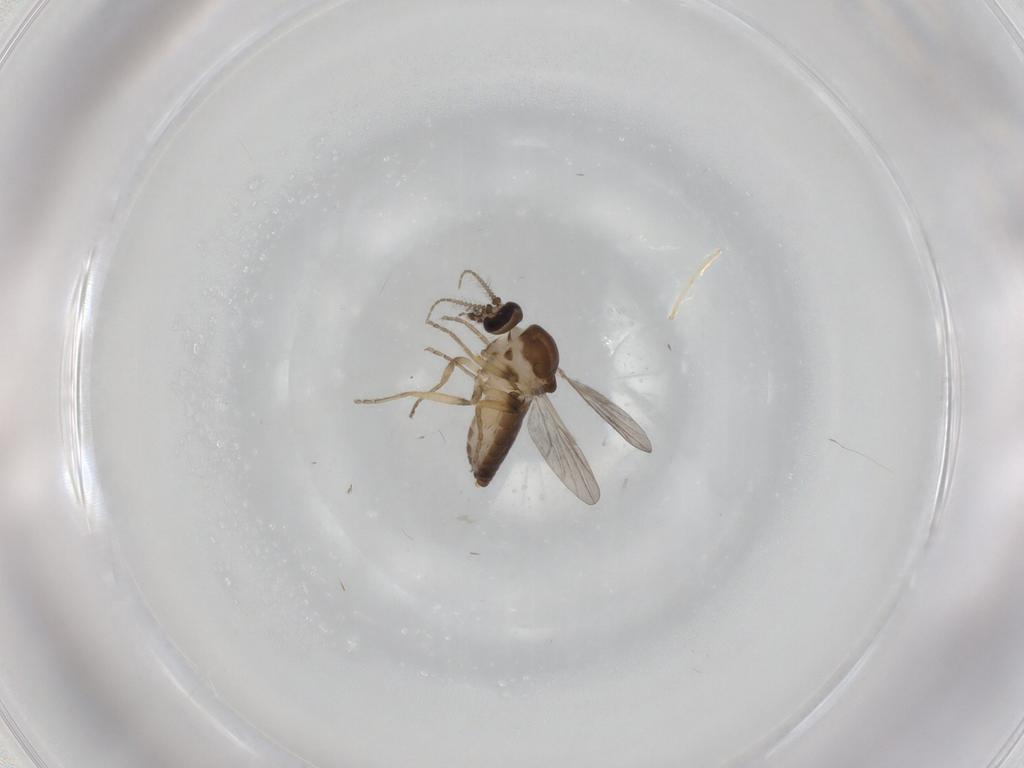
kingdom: Animalia
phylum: Arthropoda
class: Insecta
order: Diptera
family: Ceratopogonidae
